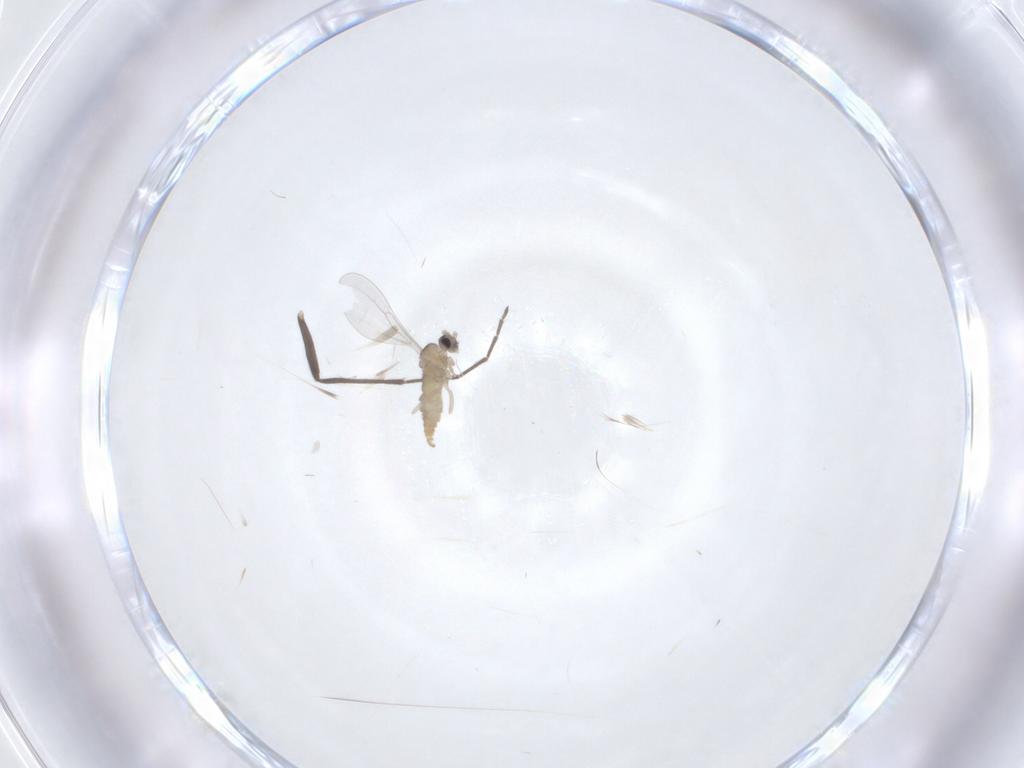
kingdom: Animalia
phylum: Arthropoda
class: Insecta
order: Diptera
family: Cecidomyiidae
